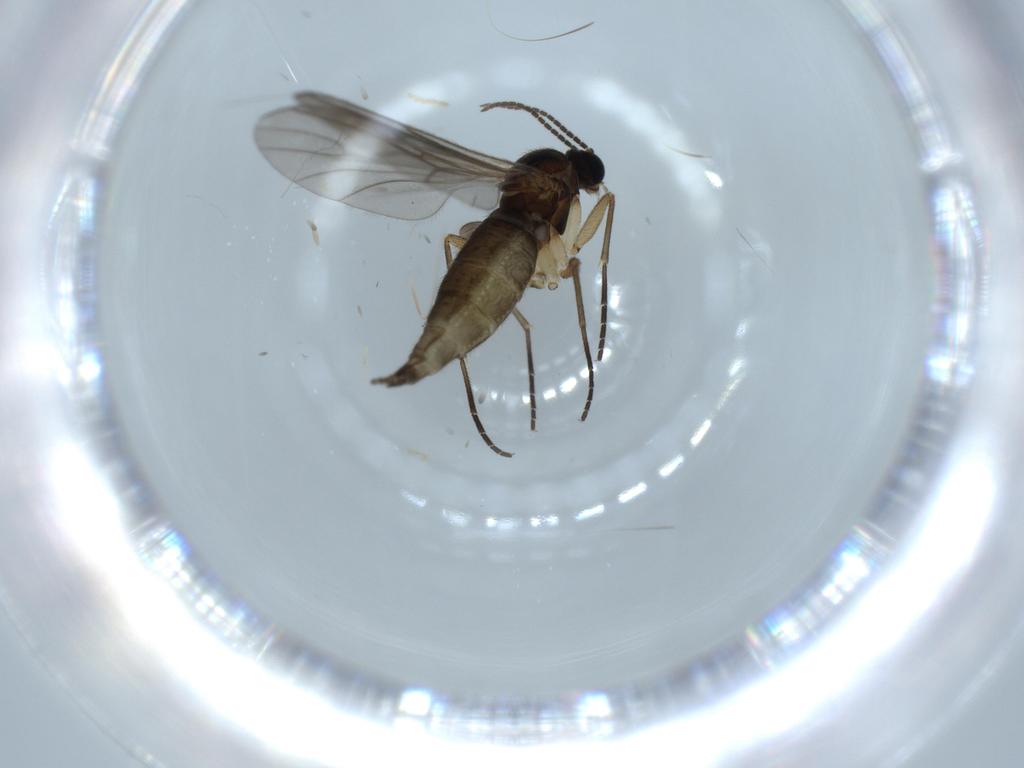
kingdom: Animalia
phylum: Arthropoda
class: Insecta
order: Diptera
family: Sciaridae
